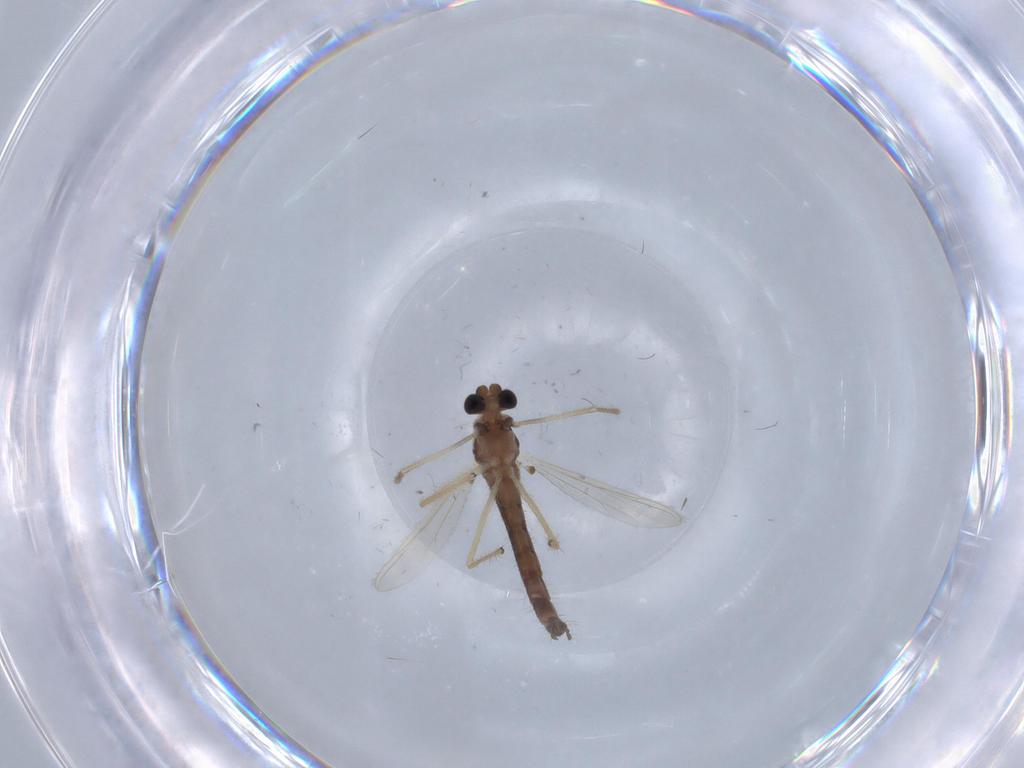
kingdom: Animalia
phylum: Arthropoda
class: Insecta
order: Diptera
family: Chironomidae
